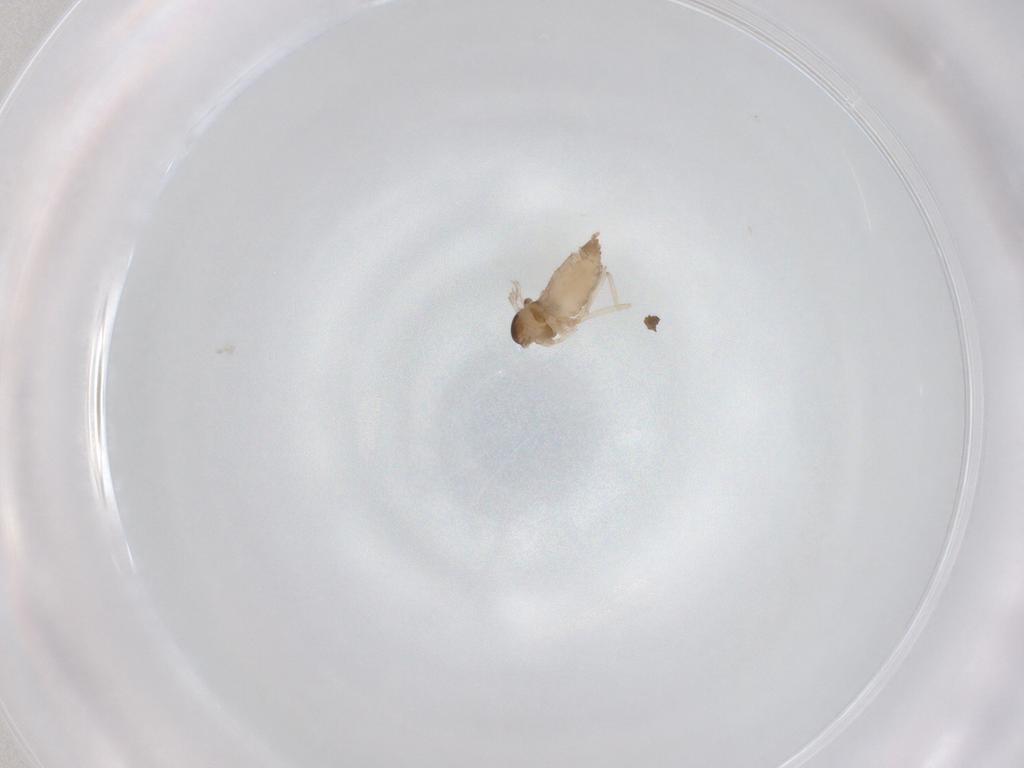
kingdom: Animalia
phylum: Arthropoda
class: Insecta
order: Diptera
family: Cecidomyiidae
